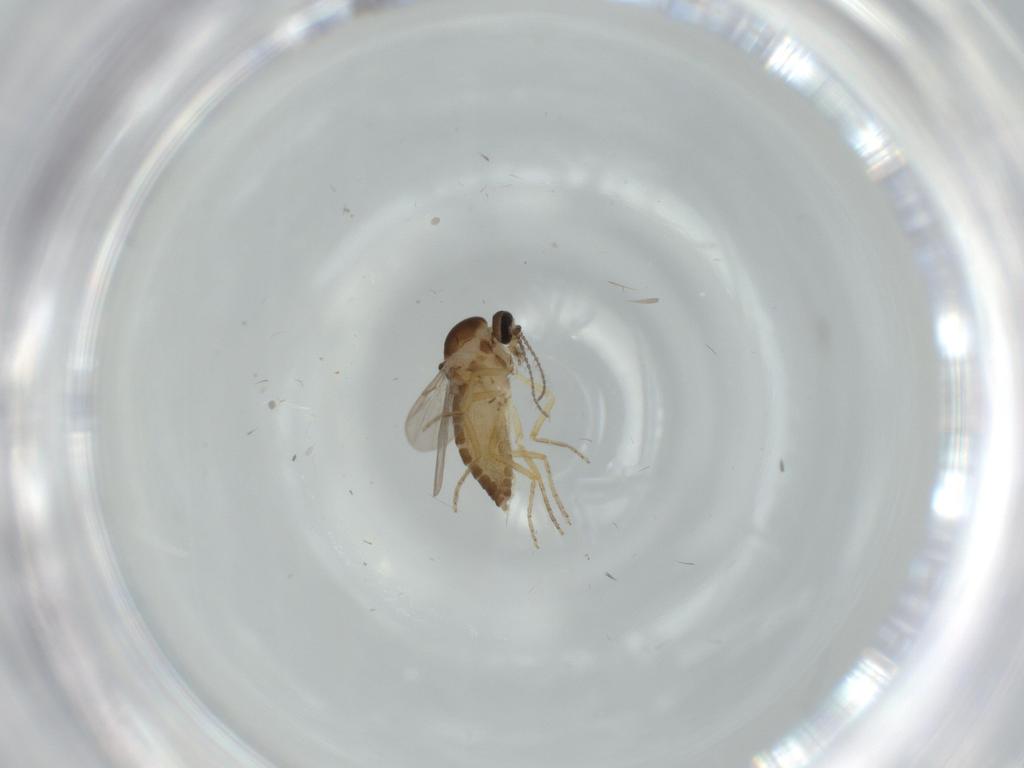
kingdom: Animalia
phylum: Arthropoda
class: Insecta
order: Diptera
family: Ceratopogonidae
